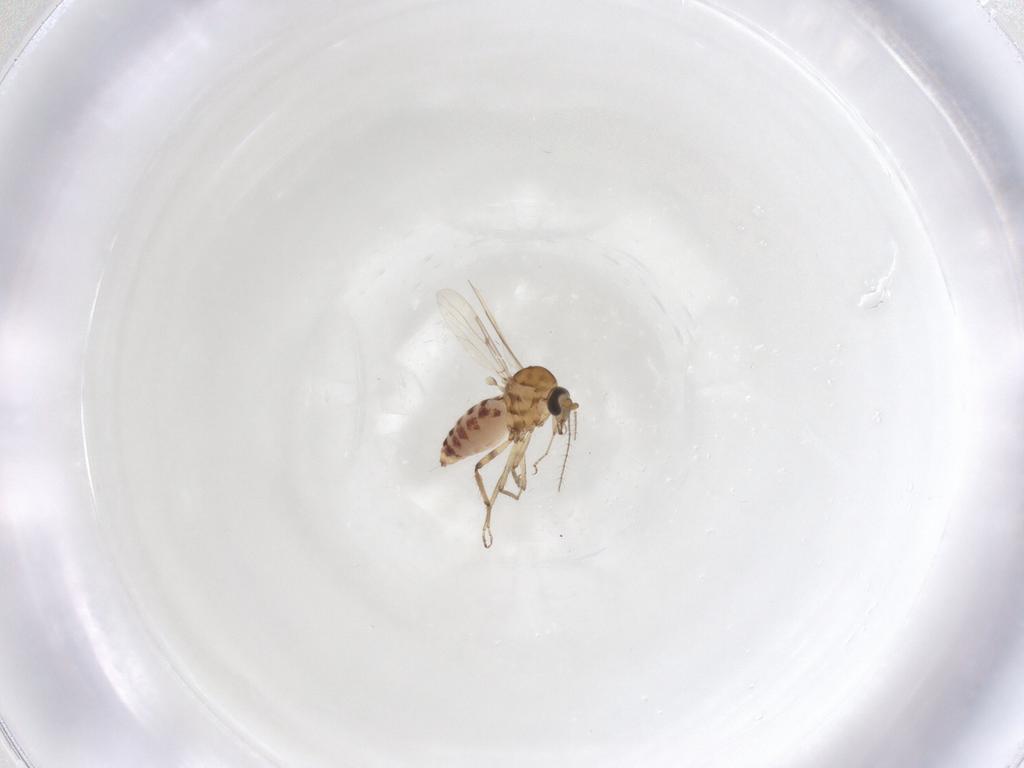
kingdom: Animalia
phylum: Arthropoda
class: Insecta
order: Diptera
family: Ceratopogonidae
